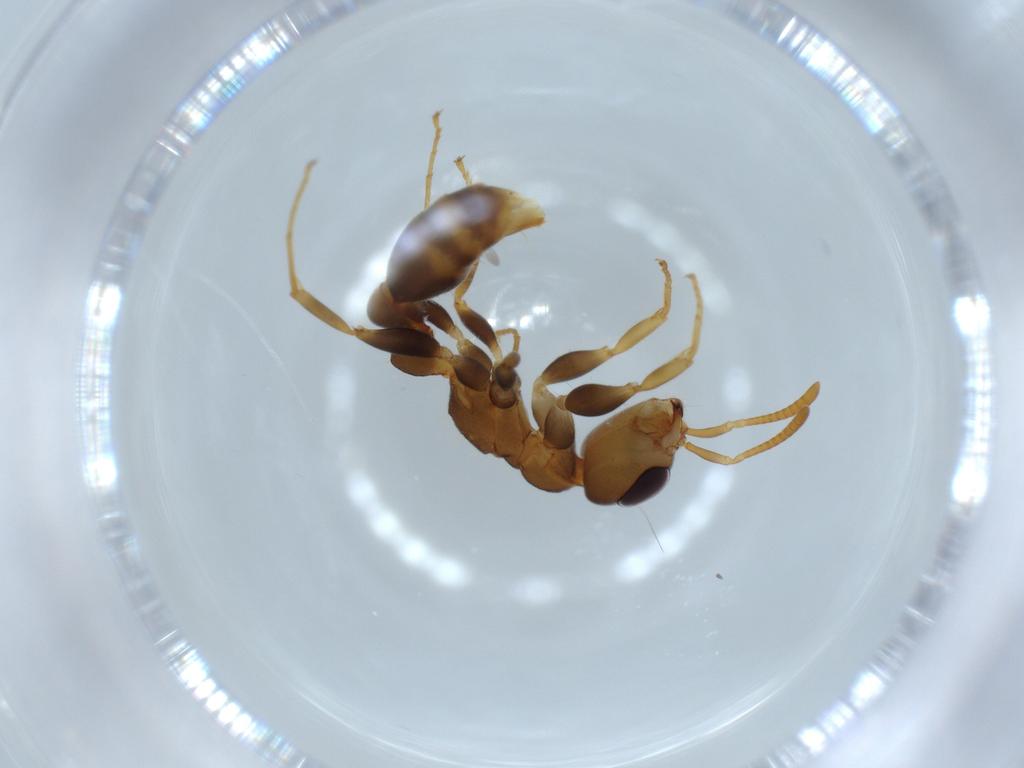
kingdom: Animalia
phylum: Arthropoda
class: Insecta
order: Hymenoptera
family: Formicidae
